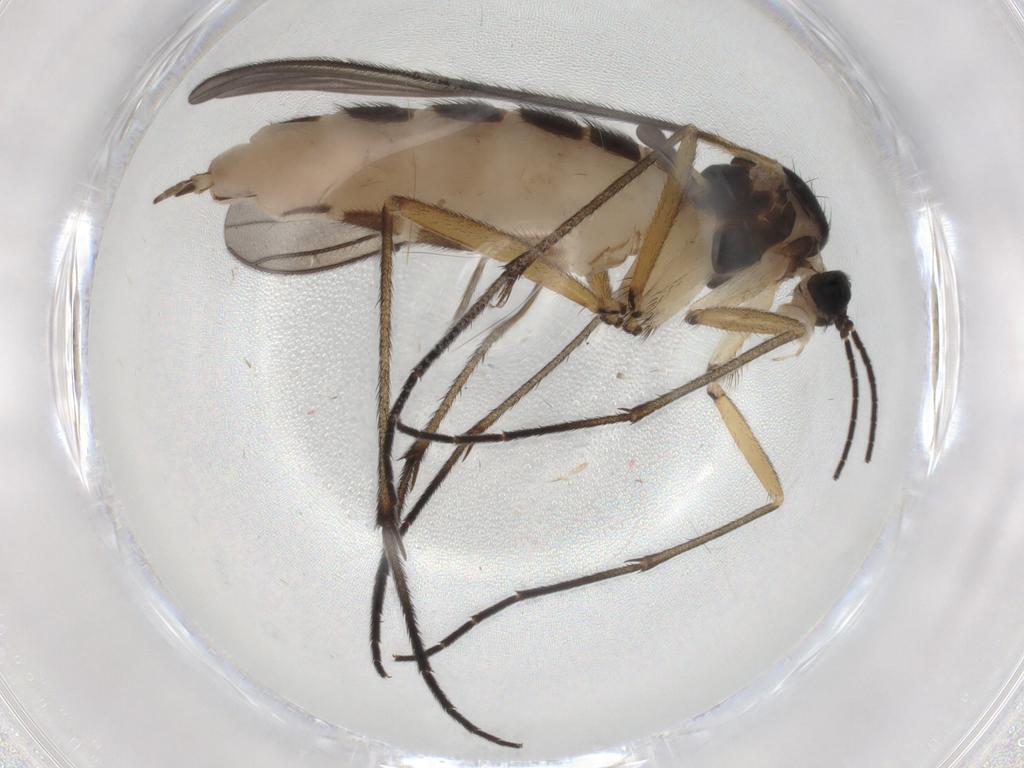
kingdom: Animalia
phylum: Arthropoda
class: Insecta
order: Diptera
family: Sciaridae
